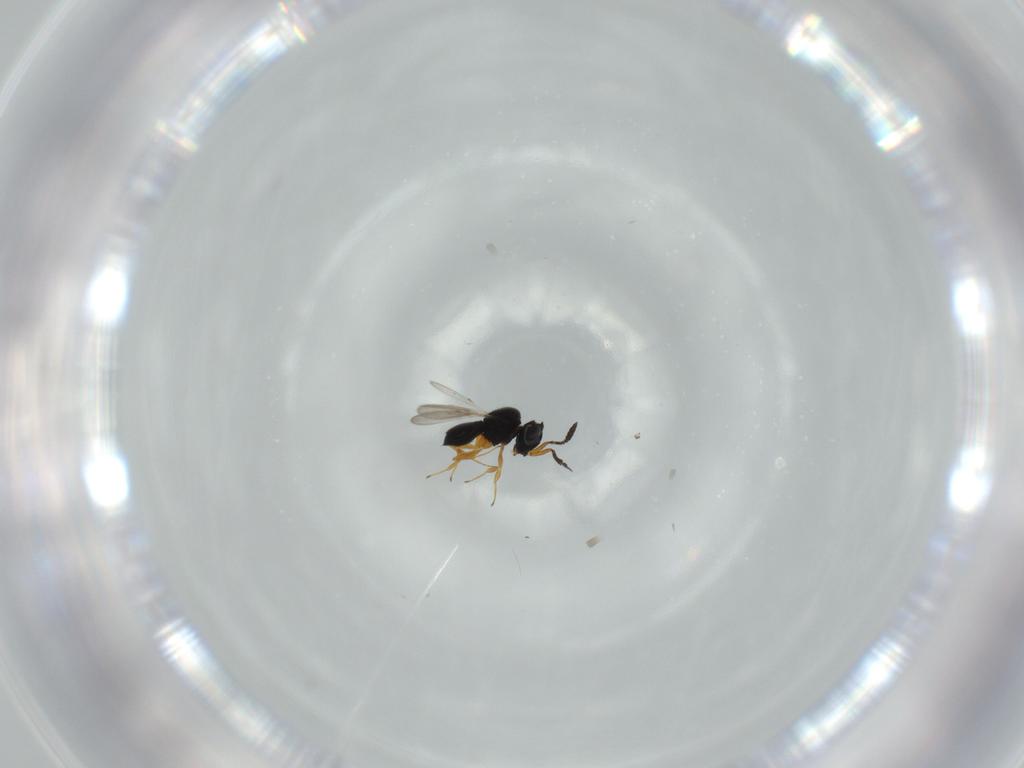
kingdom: Animalia
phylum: Arthropoda
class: Insecta
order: Hymenoptera
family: Scelionidae
